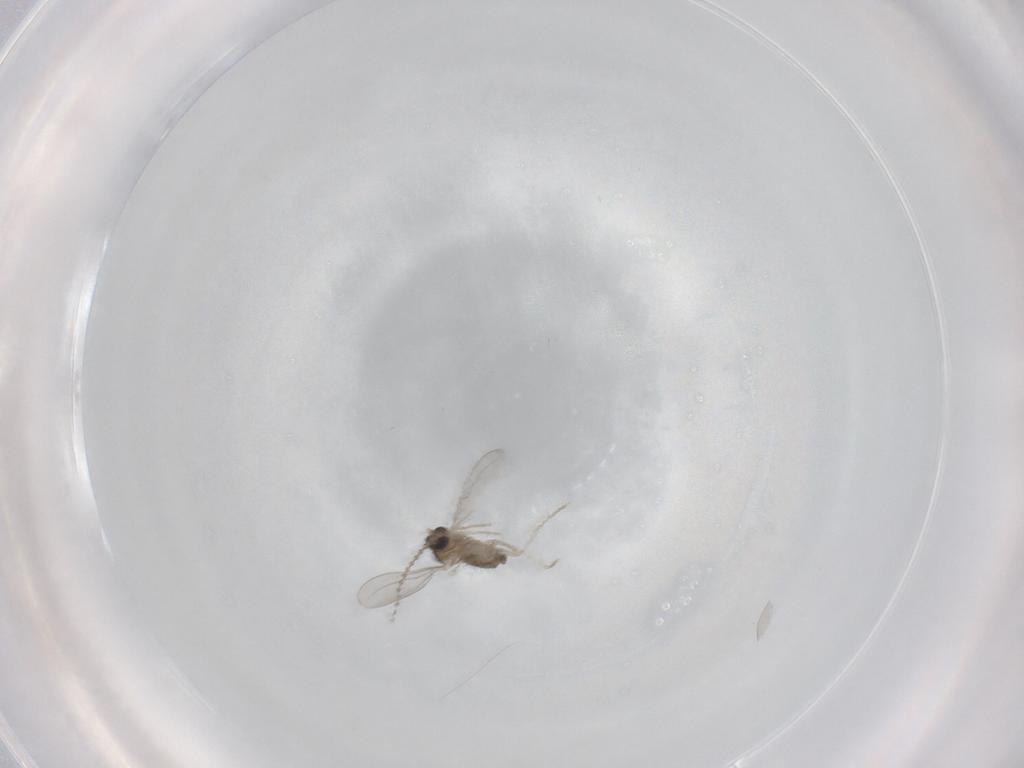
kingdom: Animalia
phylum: Arthropoda
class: Insecta
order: Diptera
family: Cecidomyiidae
